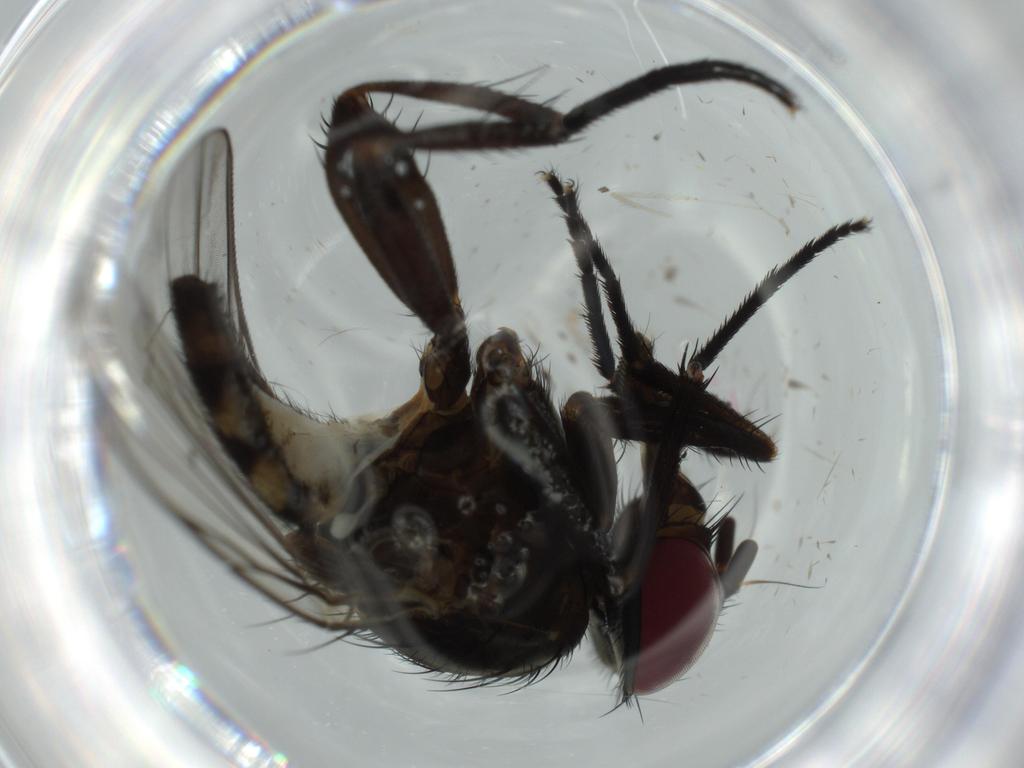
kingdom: Animalia
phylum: Arthropoda
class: Insecta
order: Diptera
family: Fannia
